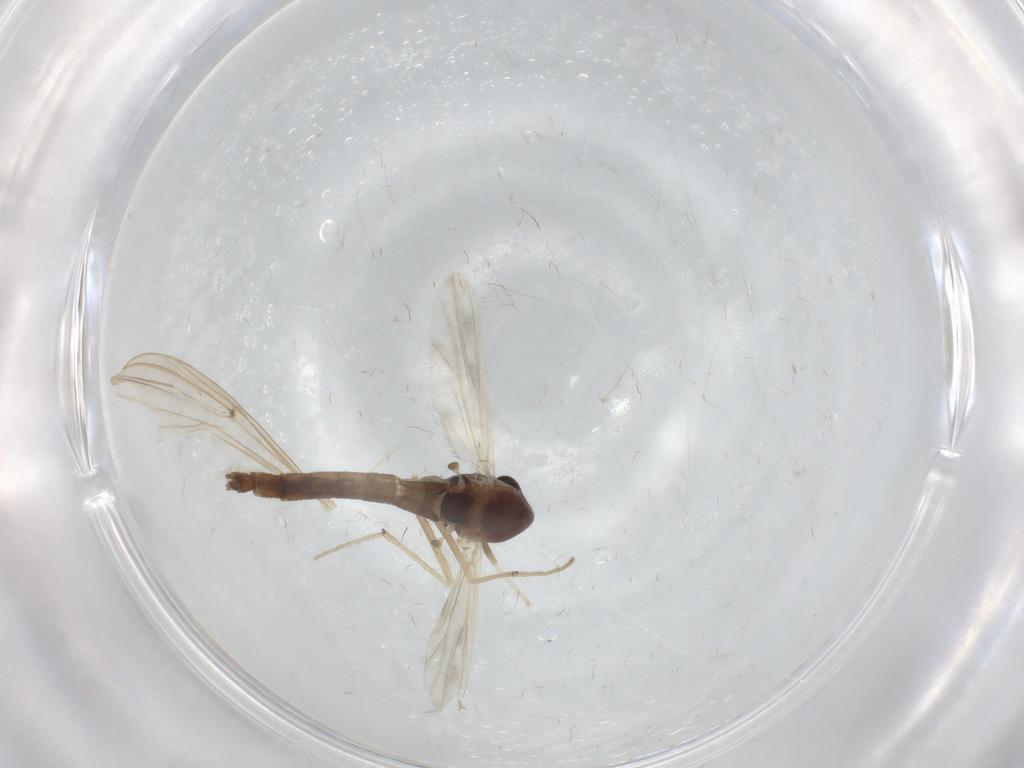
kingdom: Animalia
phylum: Arthropoda
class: Insecta
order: Diptera
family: Chironomidae
